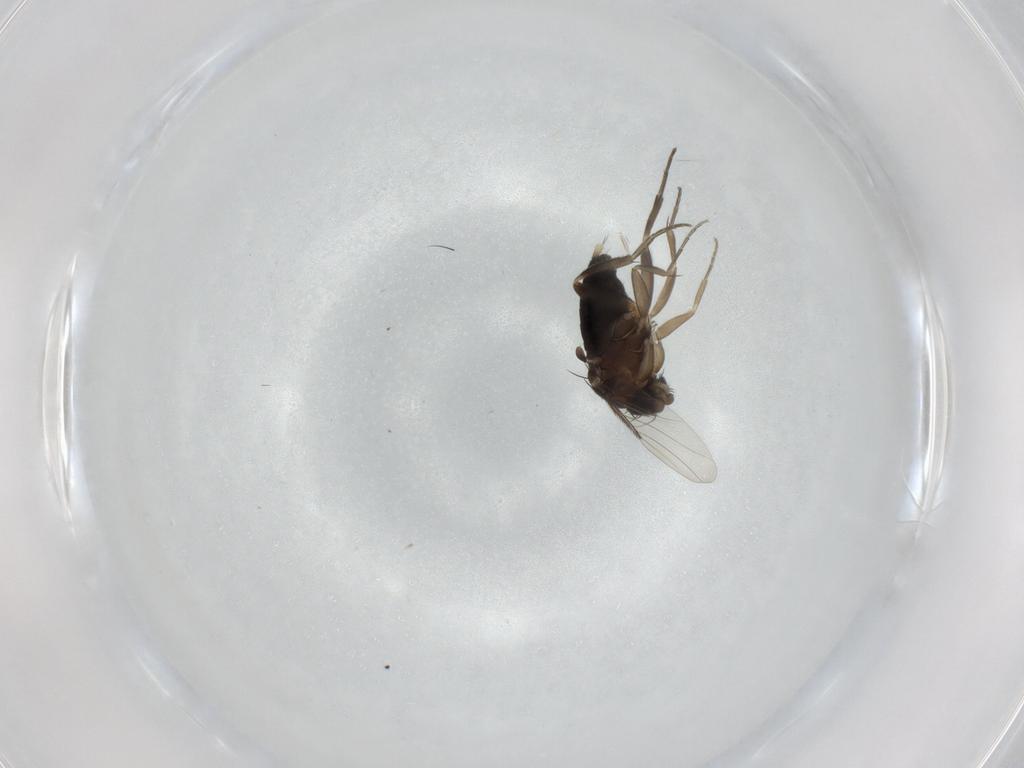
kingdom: Animalia
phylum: Arthropoda
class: Insecta
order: Diptera
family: Phoridae
